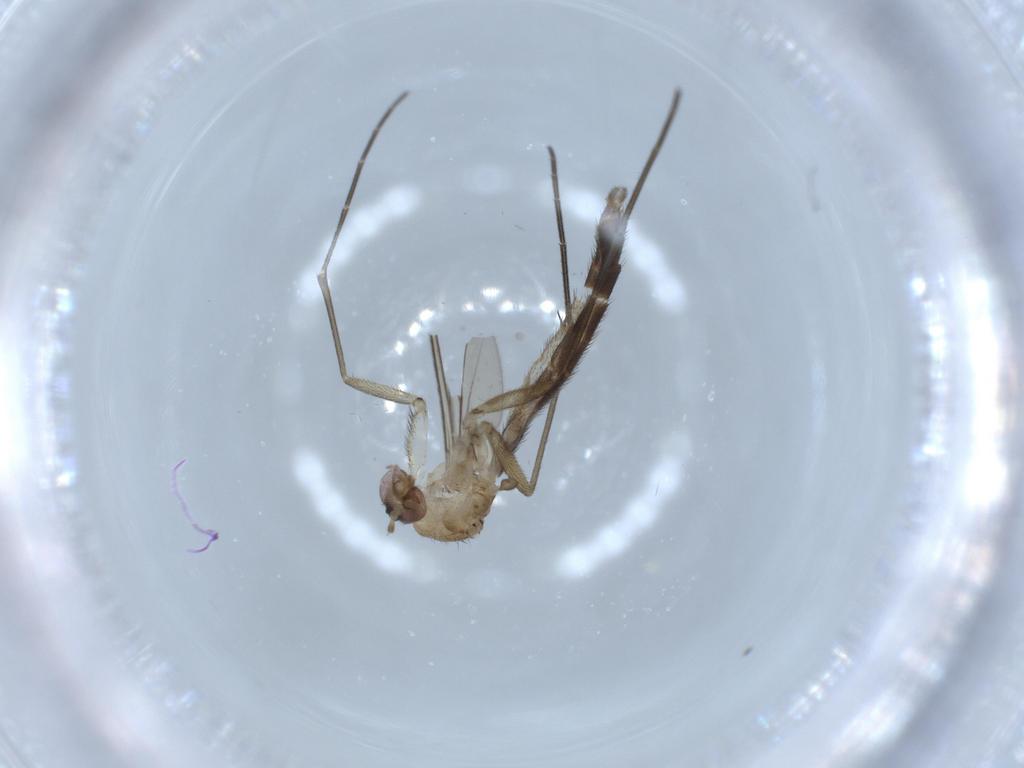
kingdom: Animalia
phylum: Arthropoda
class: Insecta
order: Diptera
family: Keroplatidae
